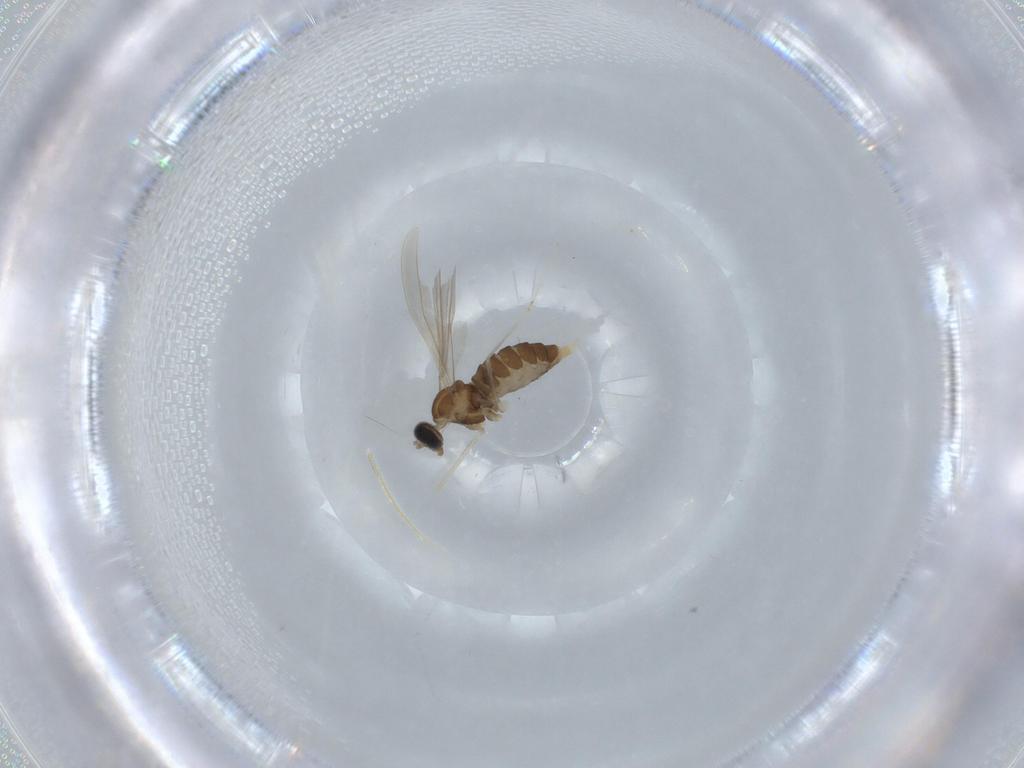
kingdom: Animalia
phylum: Arthropoda
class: Insecta
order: Diptera
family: Cecidomyiidae
